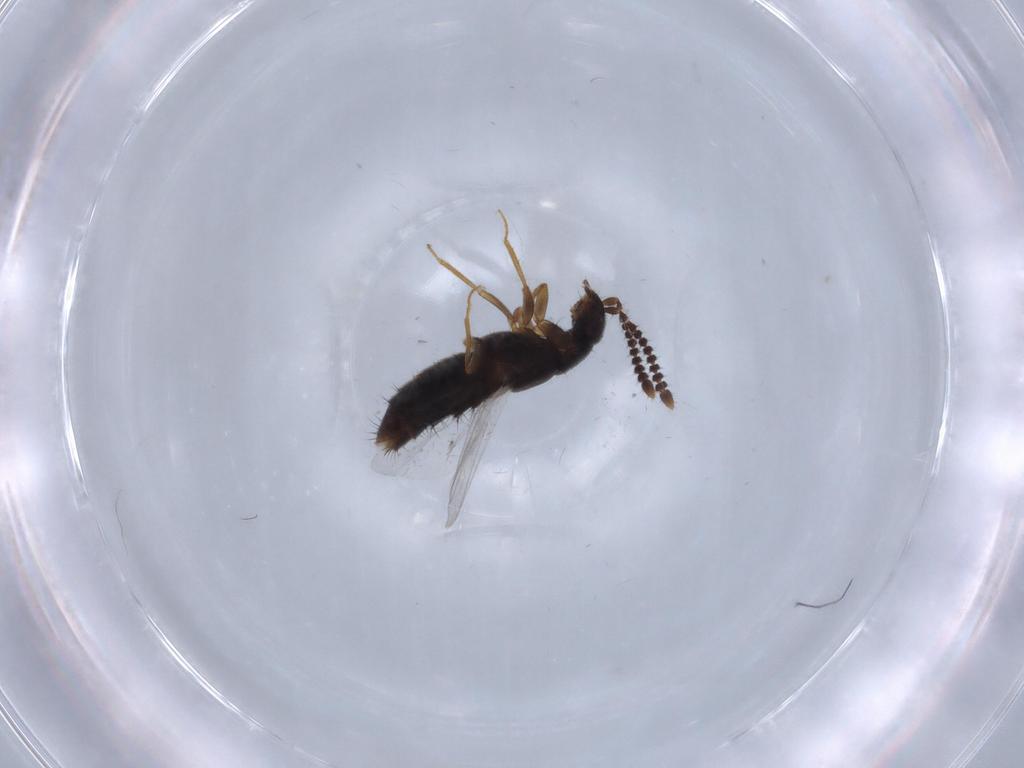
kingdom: Animalia
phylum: Arthropoda
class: Insecta
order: Coleoptera
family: Staphylinidae
